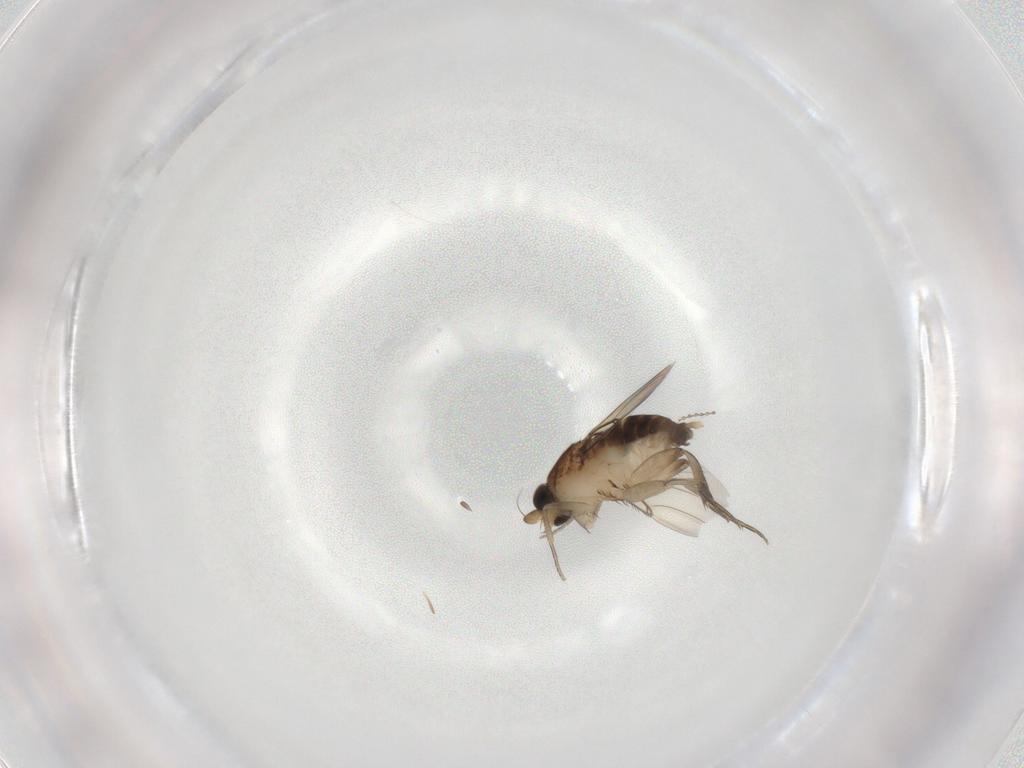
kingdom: Animalia
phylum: Arthropoda
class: Insecta
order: Diptera
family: Phoridae
